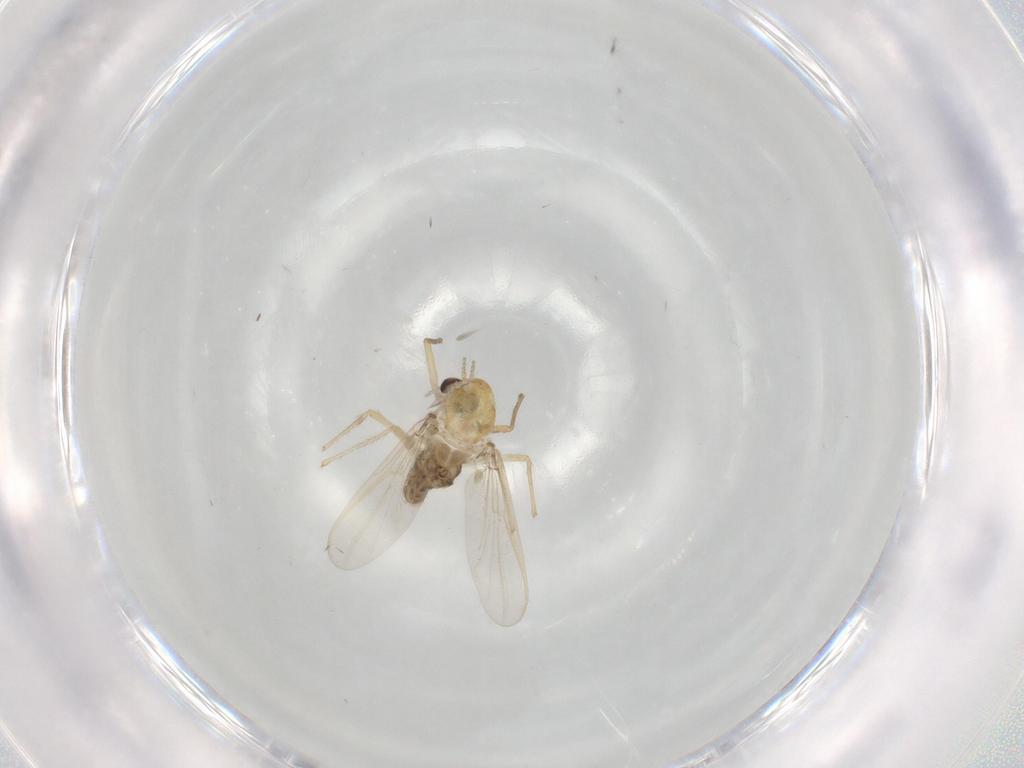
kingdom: Animalia
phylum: Arthropoda
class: Insecta
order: Diptera
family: Chironomidae
